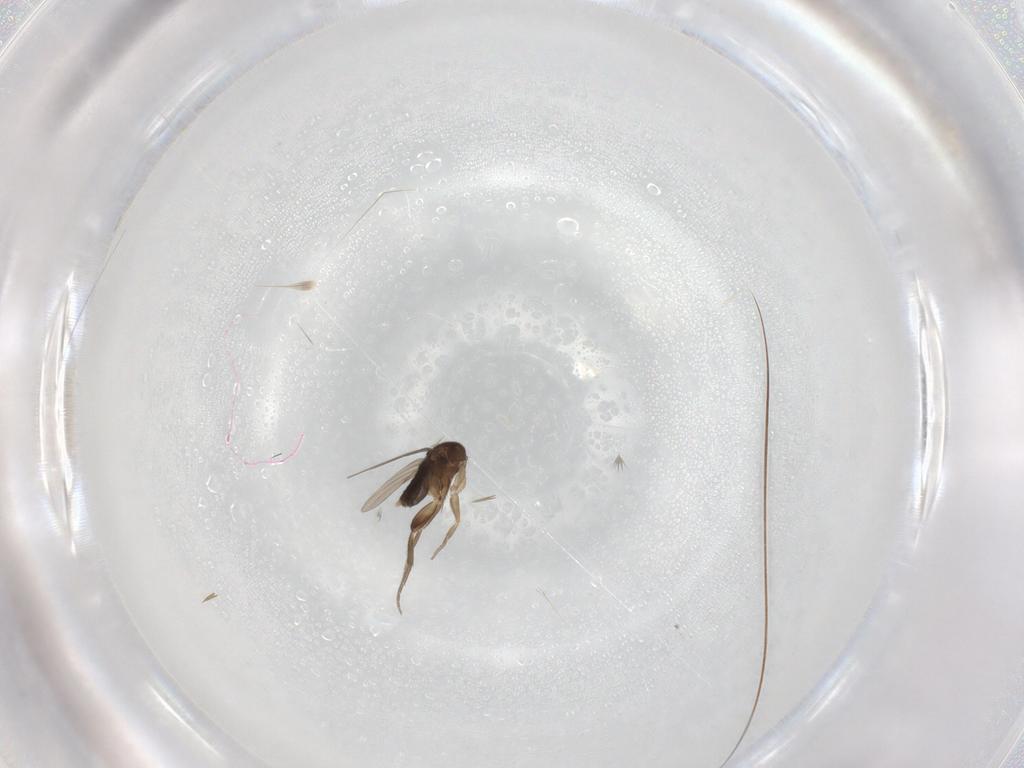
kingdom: Animalia
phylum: Arthropoda
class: Insecta
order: Diptera
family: Phoridae
